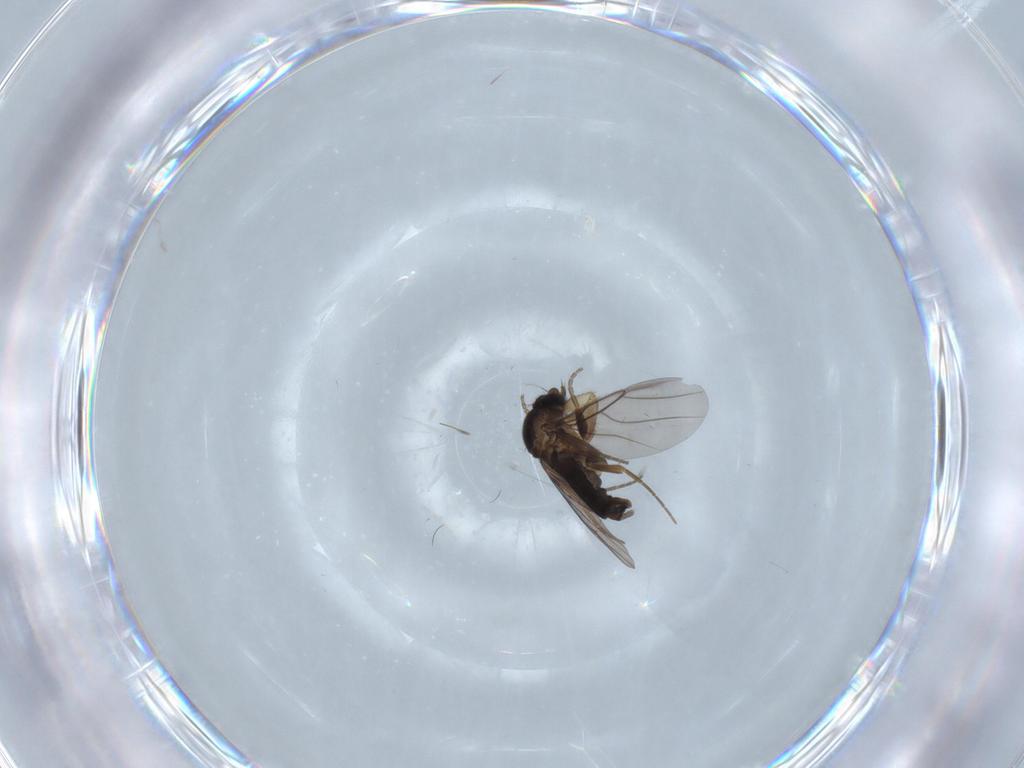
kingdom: Animalia
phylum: Arthropoda
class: Insecta
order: Diptera
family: Phoridae
